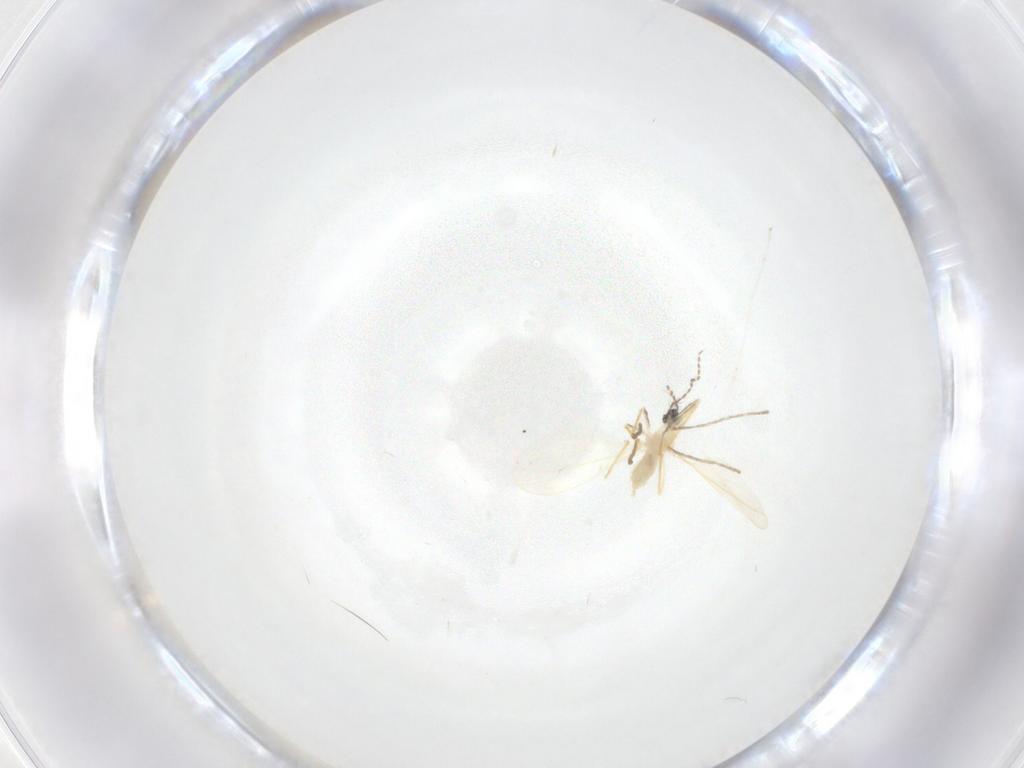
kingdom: Animalia
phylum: Arthropoda
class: Insecta
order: Diptera
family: Cecidomyiidae
